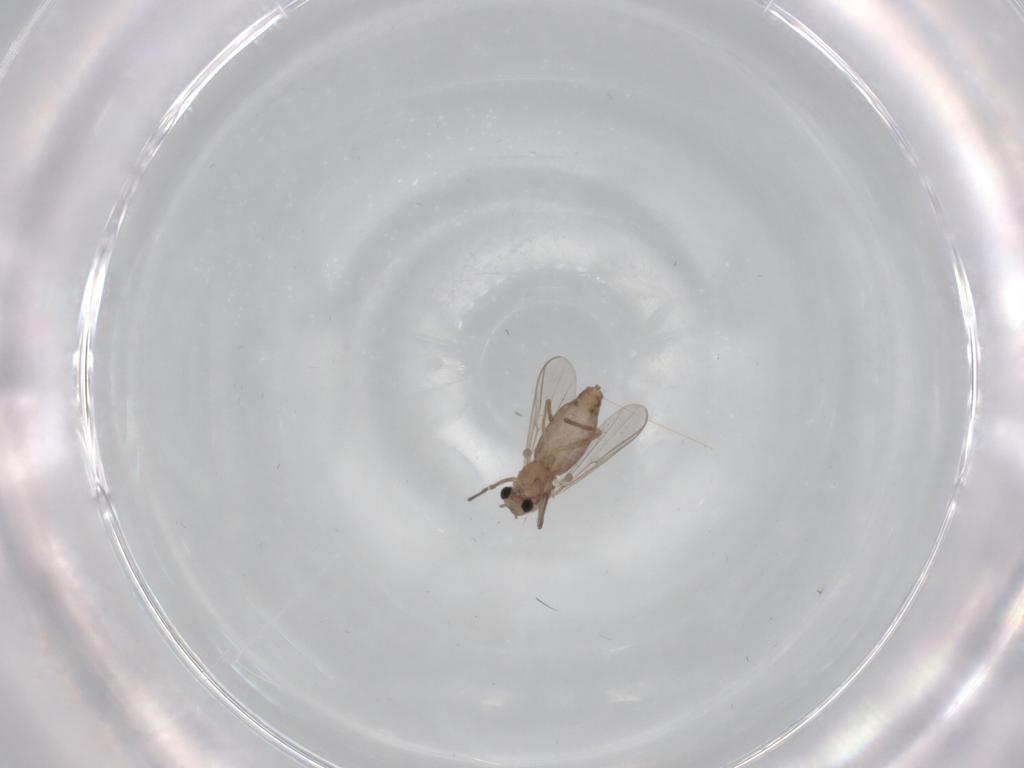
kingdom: Animalia
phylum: Arthropoda
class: Insecta
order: Diptera
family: Chironomidae
